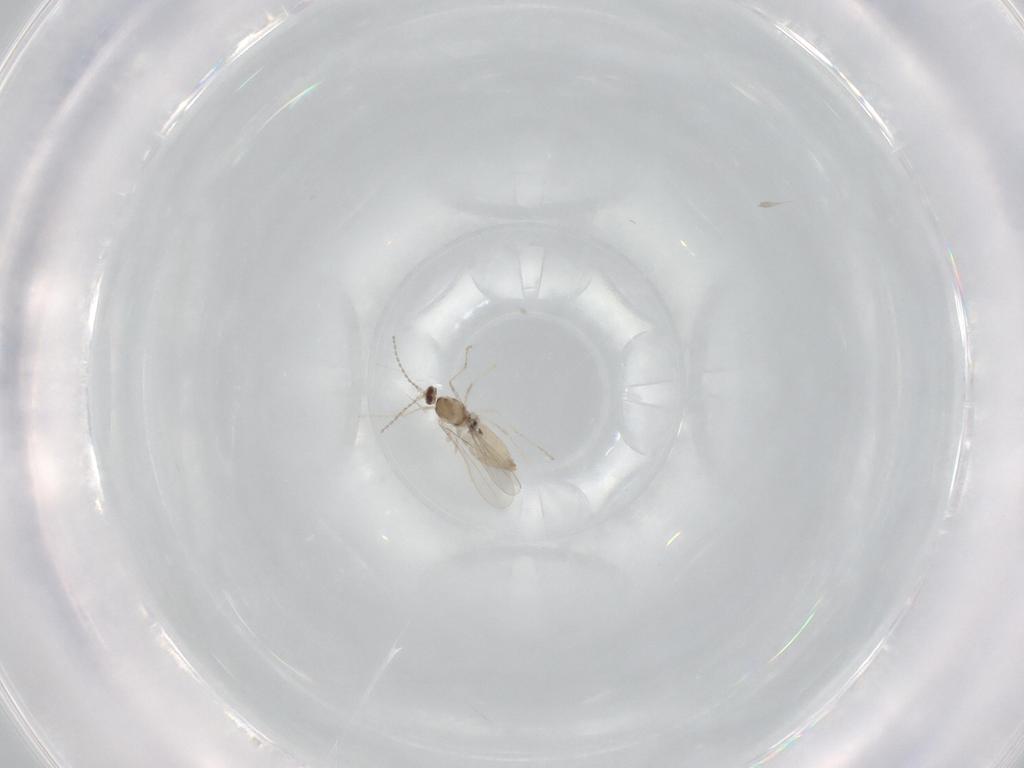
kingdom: Animalia
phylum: Arthropoda
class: Insecta
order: Diptera
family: Cecidomyiidae
